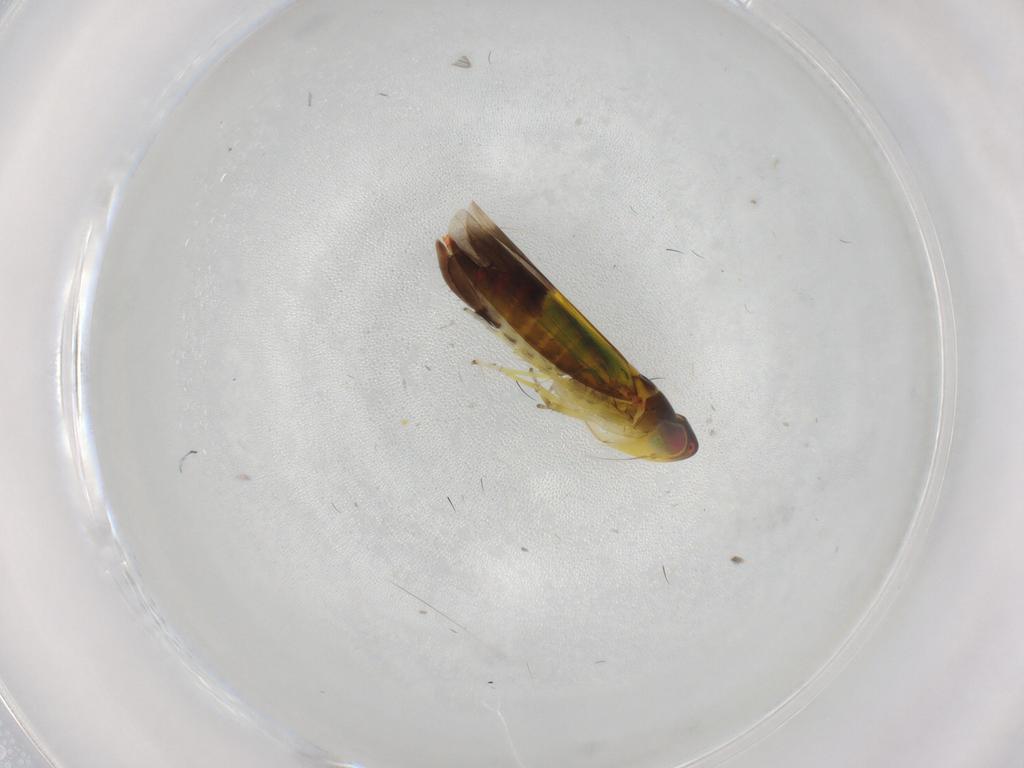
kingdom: Animalia
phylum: Arthropoda
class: Insecta
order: Hemiptera
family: Cicadellidae
